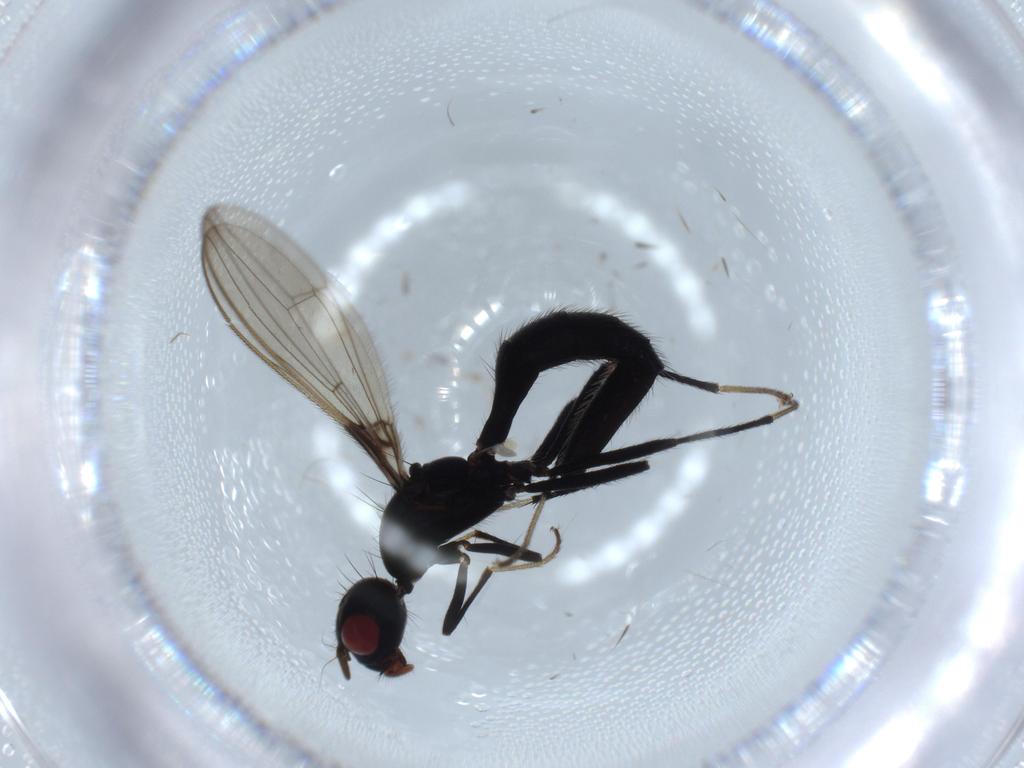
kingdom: Animalia
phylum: Arthropoda
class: Insecta
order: Diptera
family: Richardiidae
